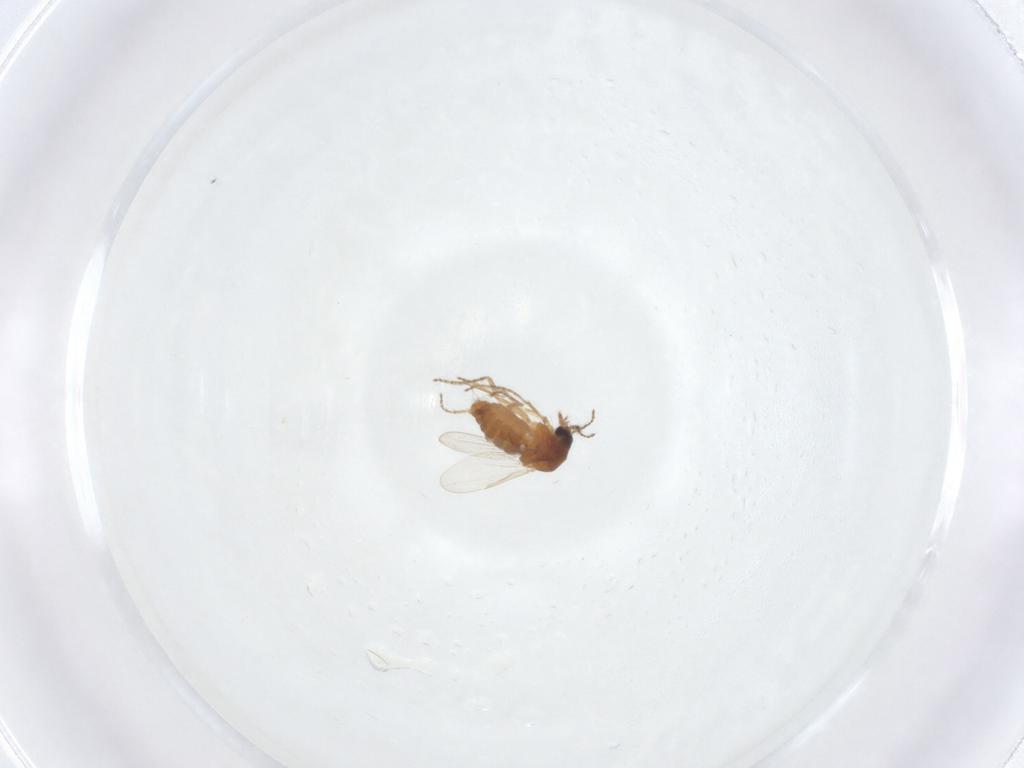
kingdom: Animalia
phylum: Arthropoda
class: Insecta
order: Diptera
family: Ceratopogonidae
